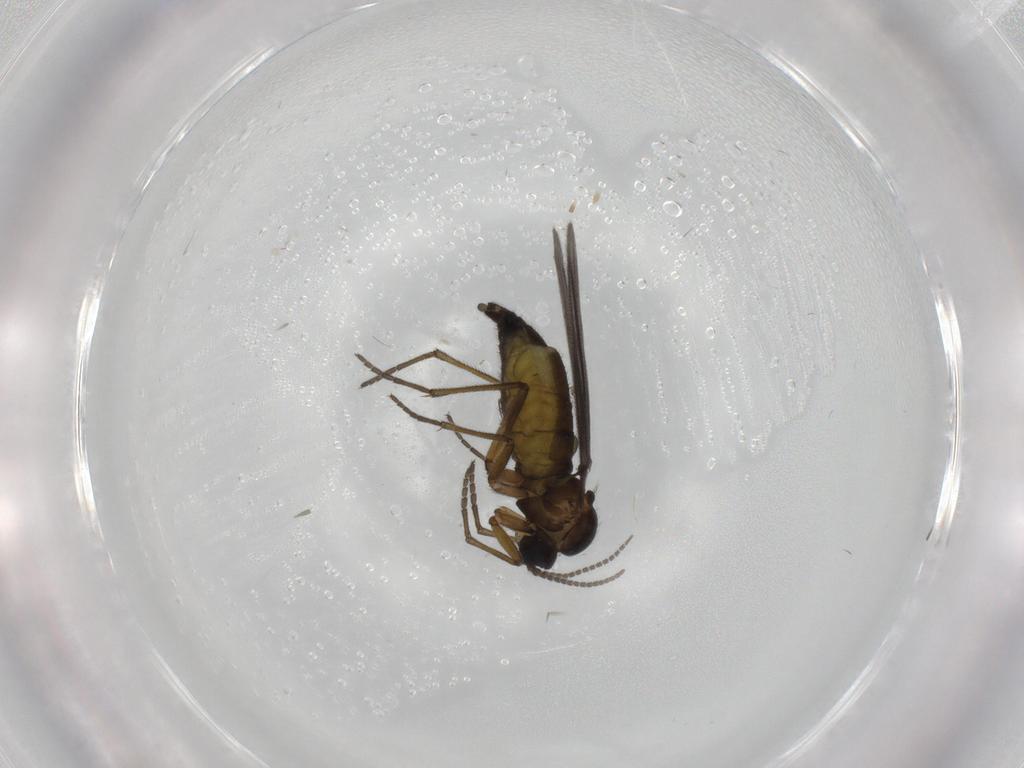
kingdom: Animalia
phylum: Arthropoda
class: Insecta
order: Diptera
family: Sciaridae
